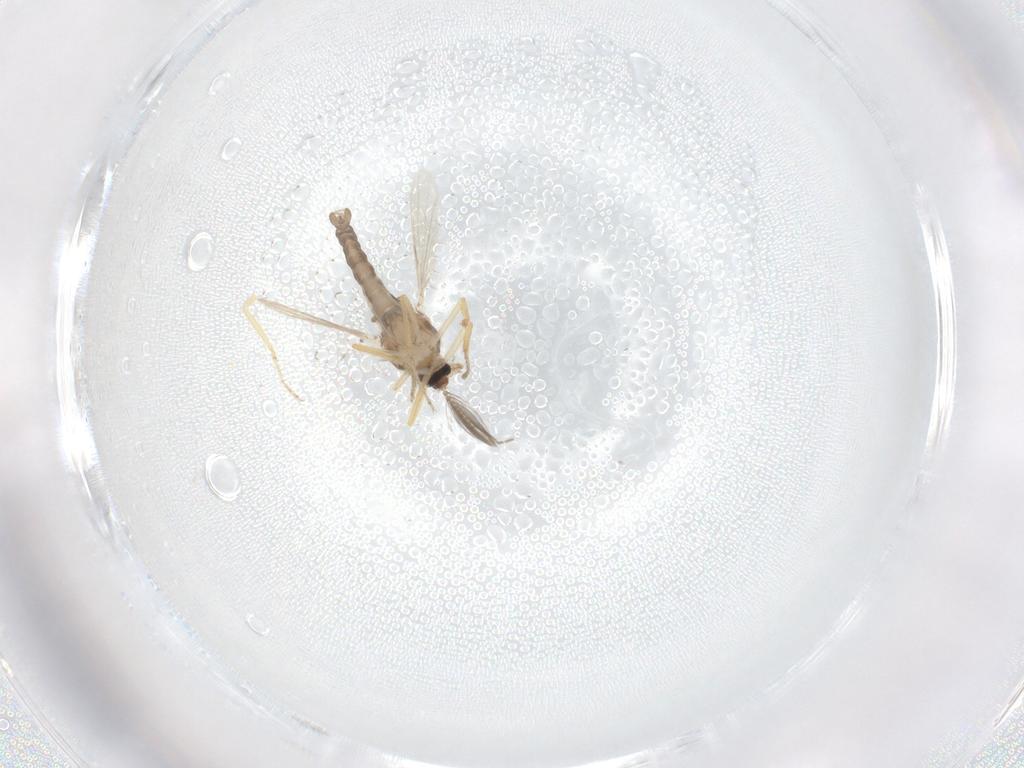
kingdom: Animalia
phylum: Arthropoda
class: Insecta
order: Diptera
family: Ceratopogonidae
